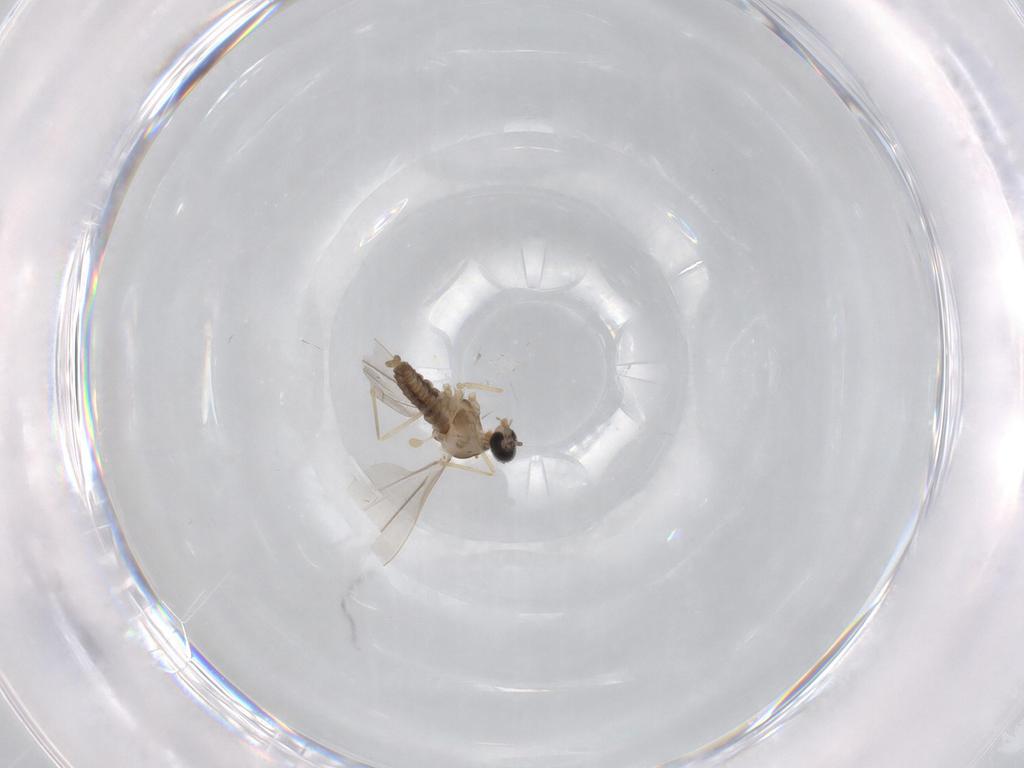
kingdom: Animalia
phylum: Arthropoda
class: Insecta
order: Diptera
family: Cecidomyiidae
